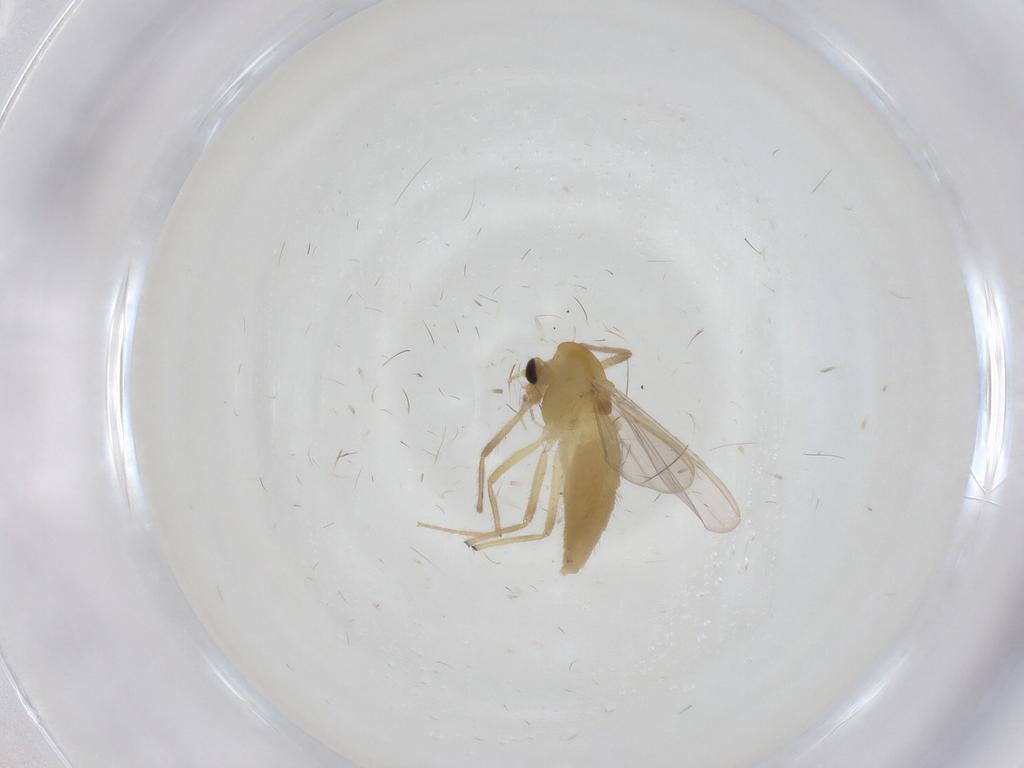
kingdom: Animalia
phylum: Arthropoda
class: Insecta
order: Diptera
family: Chironomidae
